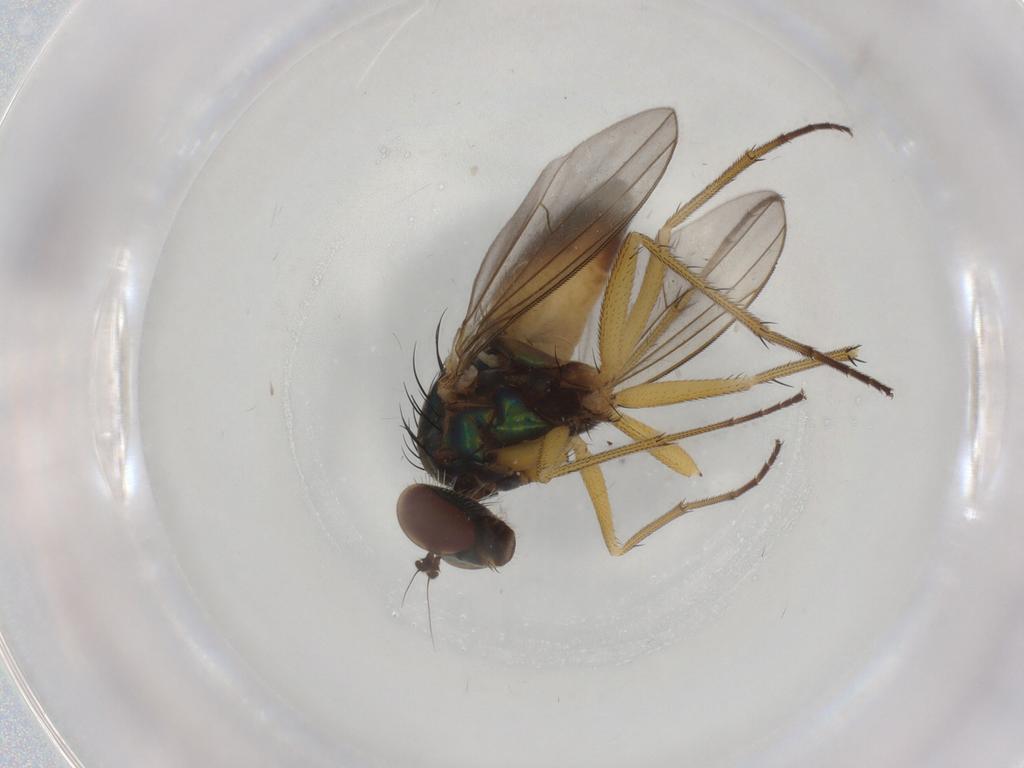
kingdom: Animalia
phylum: Arthropoda
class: Insecta
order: Diptera
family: Cecidomyiidae
